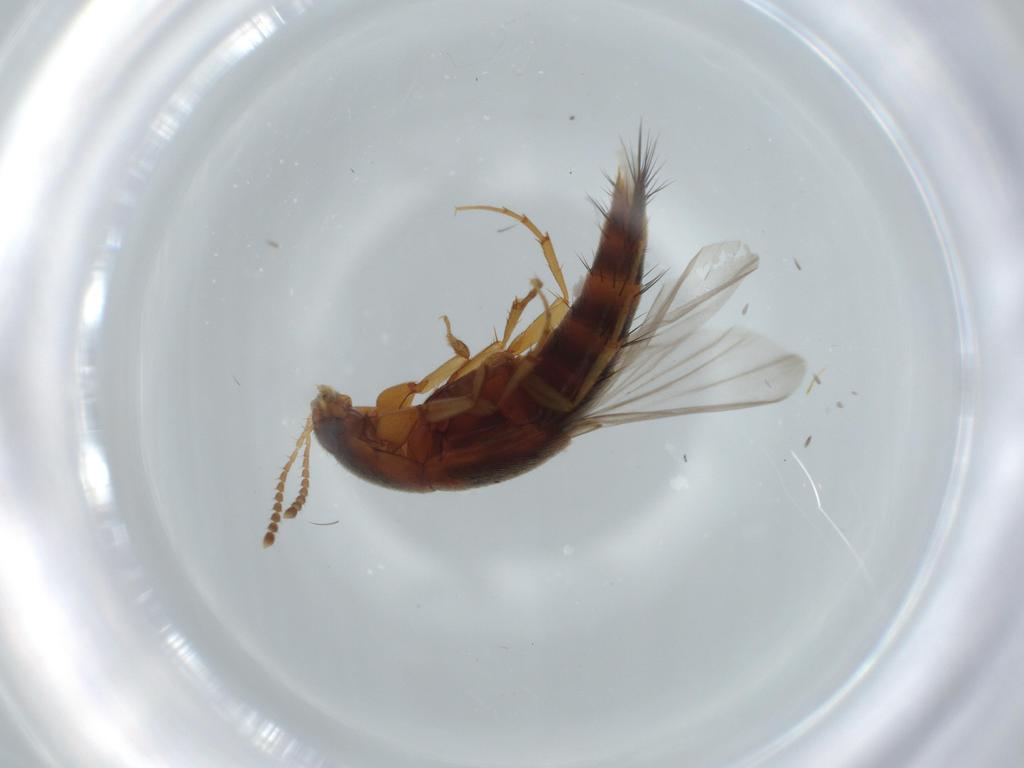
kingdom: Animalia
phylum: Arthropoda
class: Insecta
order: Coleoptera
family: Staphylinidae
